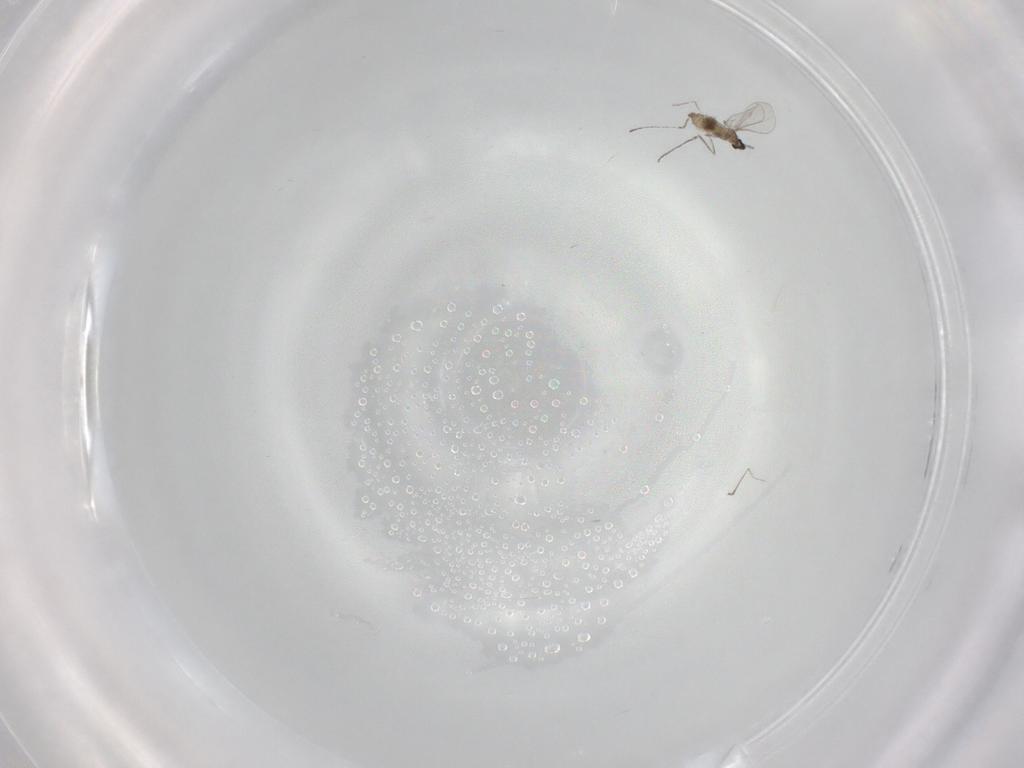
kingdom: Animalia
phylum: Arthropoda
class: Insecta
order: Diptera
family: Cecidomyiidae
